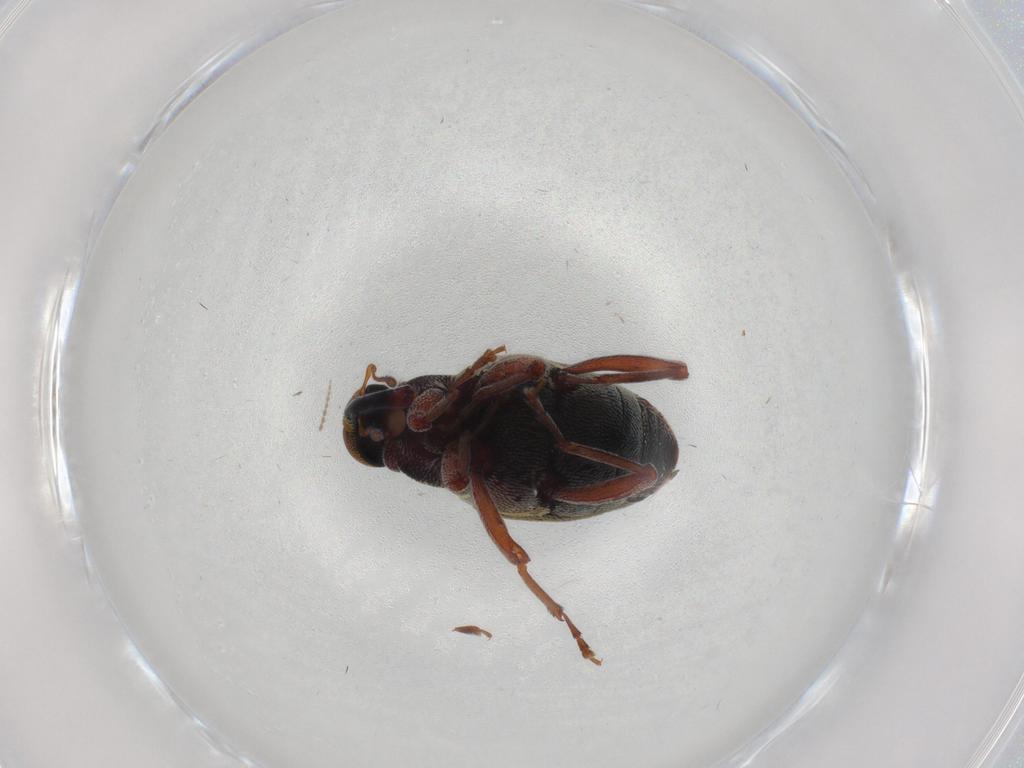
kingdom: Animalia
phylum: Arthropoda
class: Insecta
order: Coleoptera
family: Curculionidae
